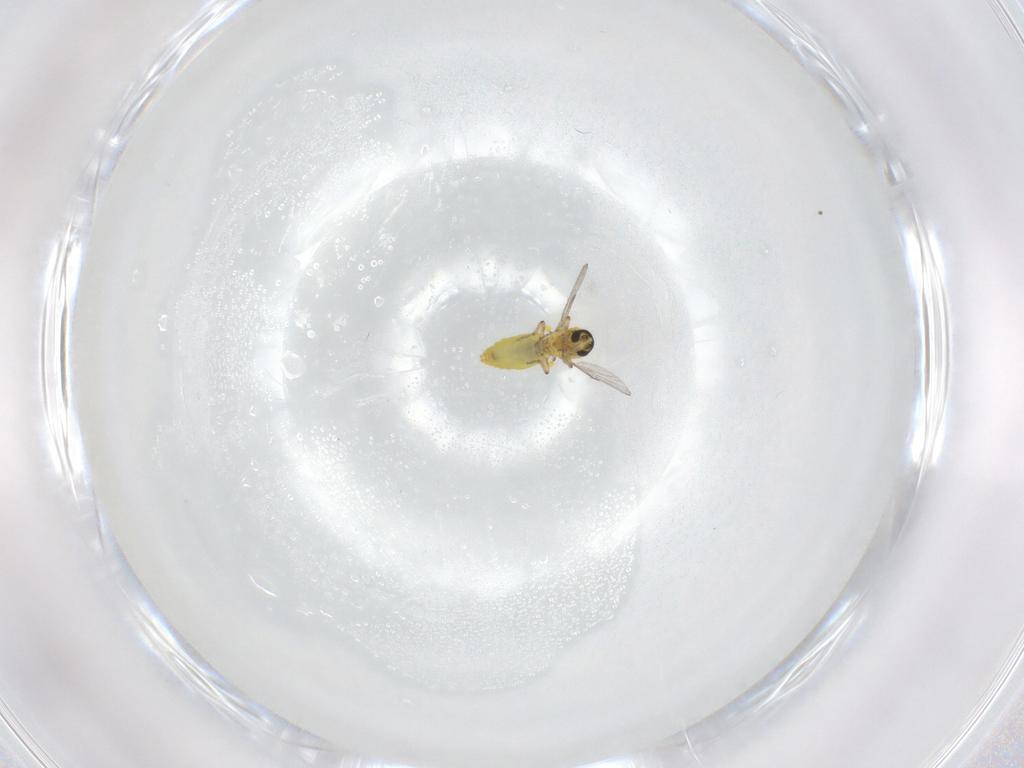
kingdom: Animalia
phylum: Arthropoda
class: Insecta
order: Diptera
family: Ceratopogonidae
